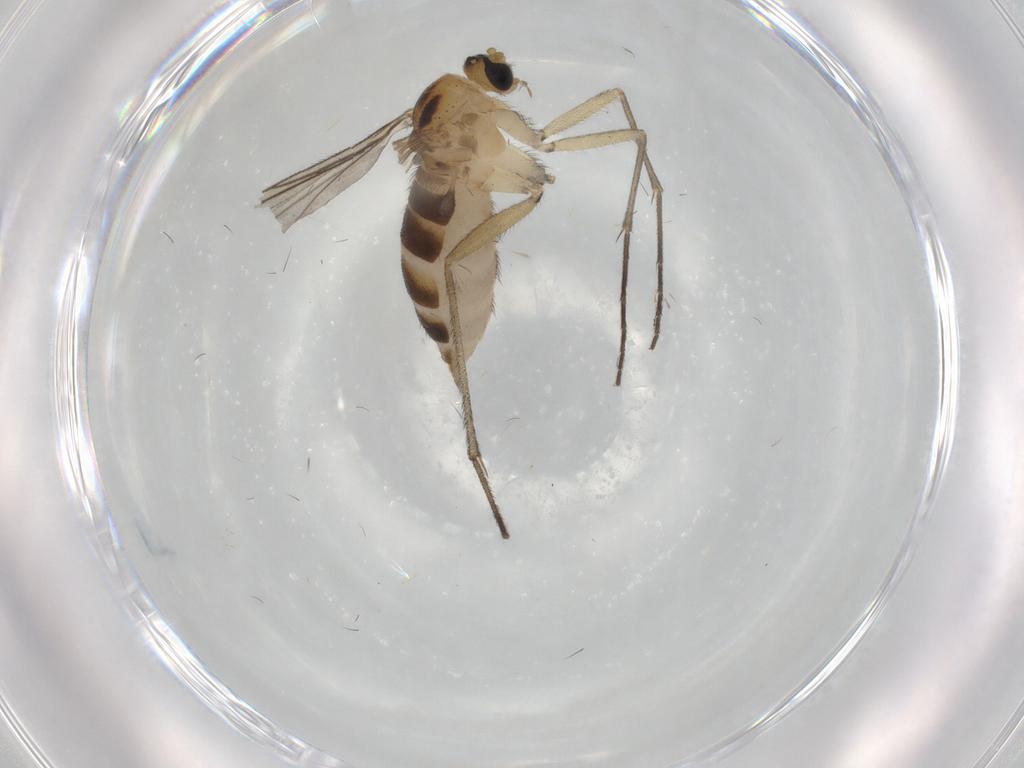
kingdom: Animalia
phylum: Arthropoda
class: Insecta
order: Diptera
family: Sciaridae
